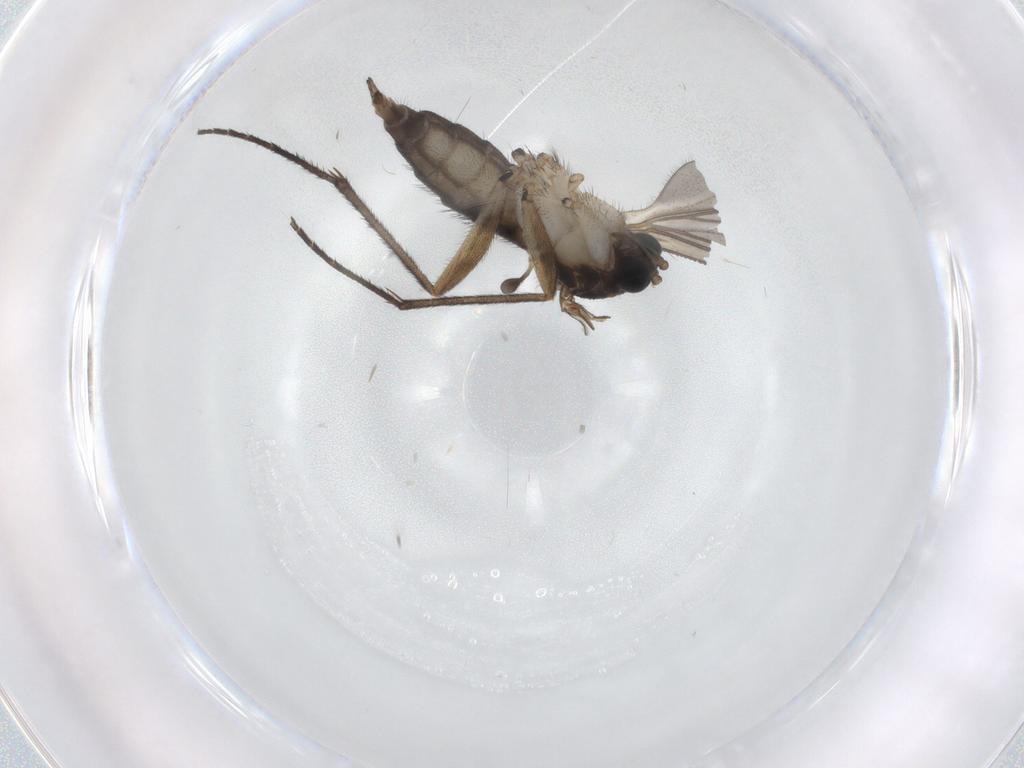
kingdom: Animalia
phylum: Arthropoda
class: Insecta
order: Diptera
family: Sciaridae
